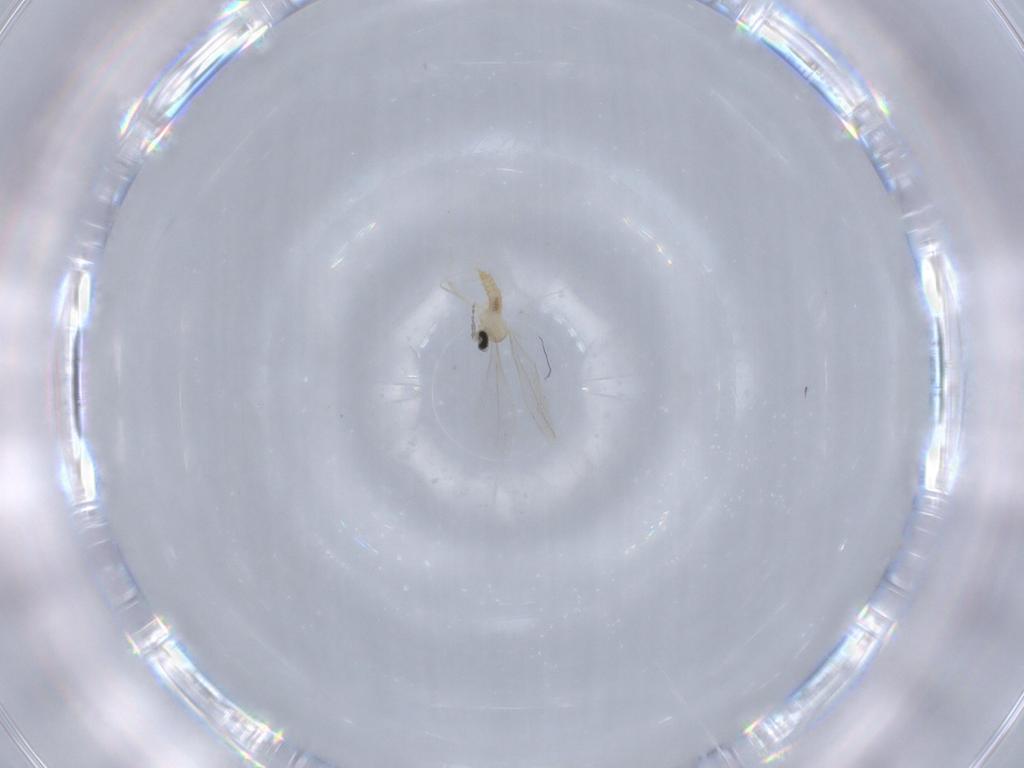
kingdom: Animalia
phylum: Arthropoda
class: Insecta
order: Diptera
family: Cecidomyiidae
